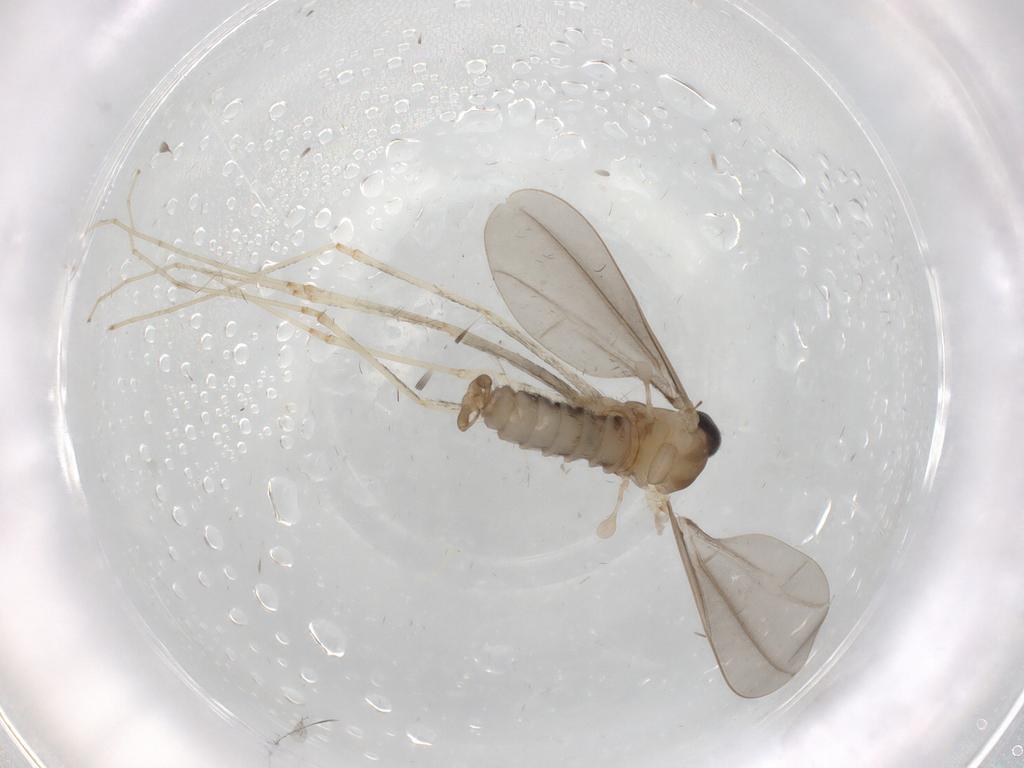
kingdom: Animalia
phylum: Arthropoda
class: Insecta
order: Diptera
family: Cecidomyiidae
